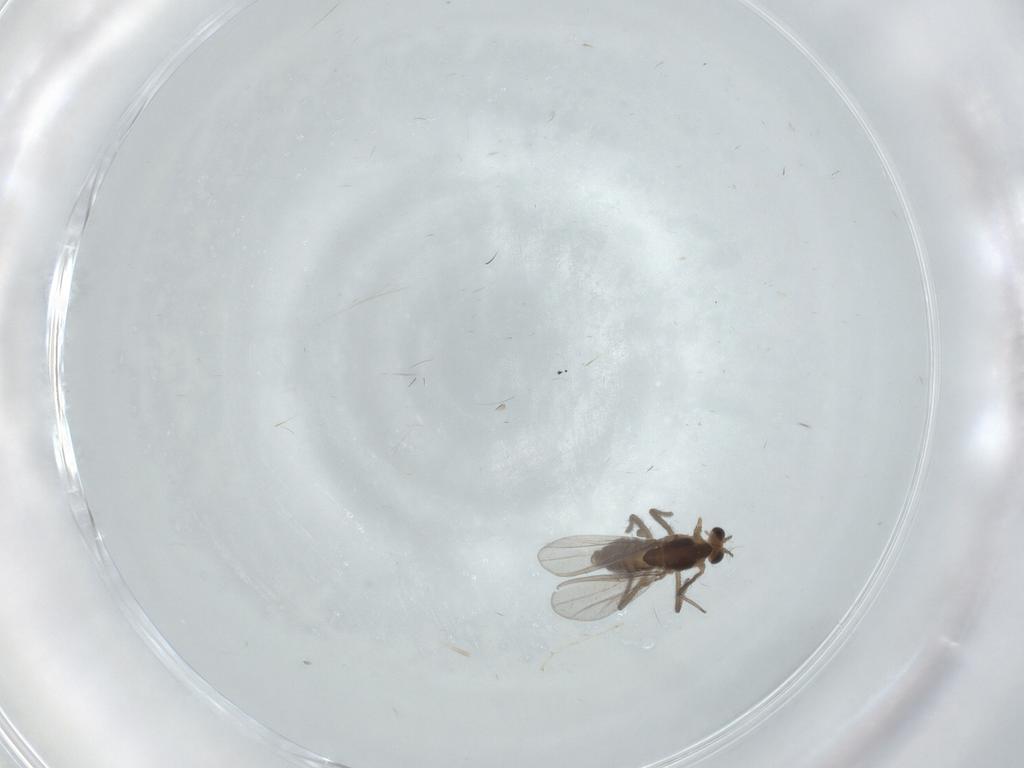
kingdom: Animalia
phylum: Arthropoda
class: Insecta
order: Diptera
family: Chironomidae
